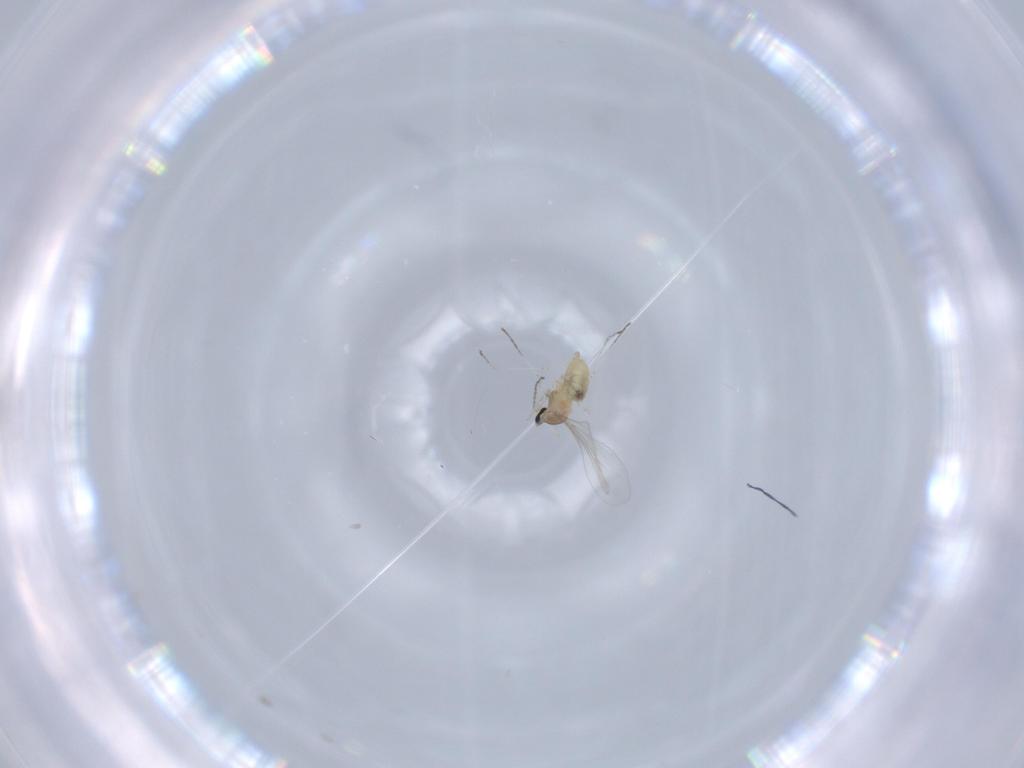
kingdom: Animalia
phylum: Arthropoda
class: Insecta
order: Diptera
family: Cecidomyiidae
